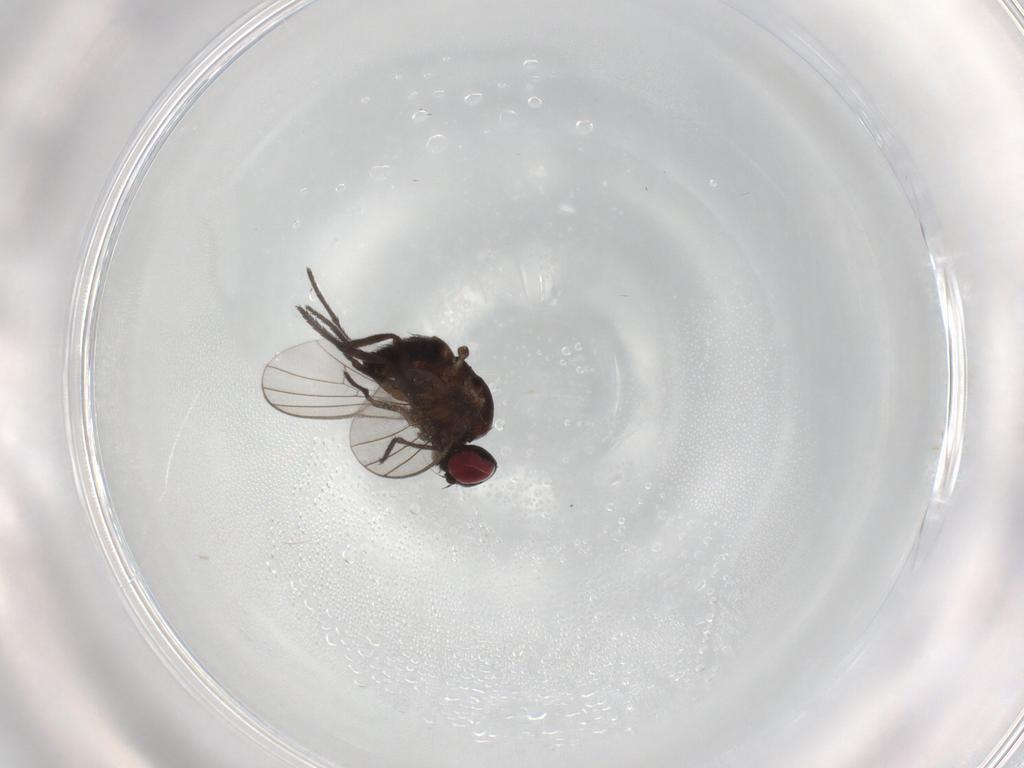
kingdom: Animalia
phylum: Arthropoda
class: Insecta
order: Diptera
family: Agromyzidae
